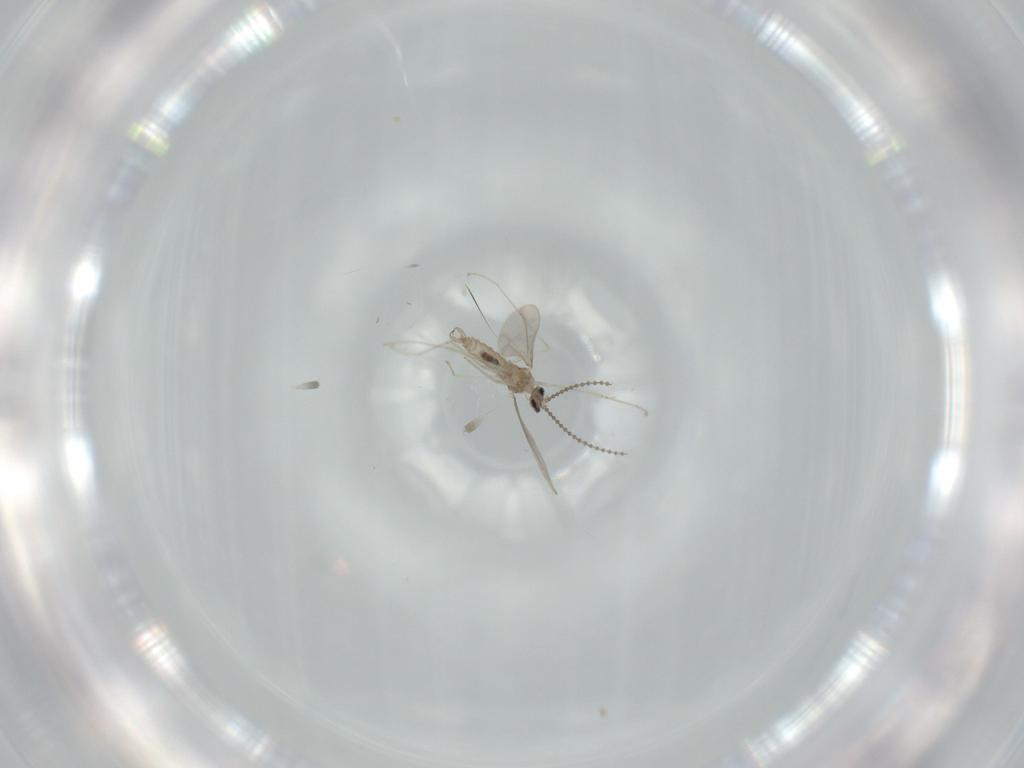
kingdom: Animalia
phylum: Arthropoda
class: Insecta
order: Diptera
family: Cecidomyiidae
